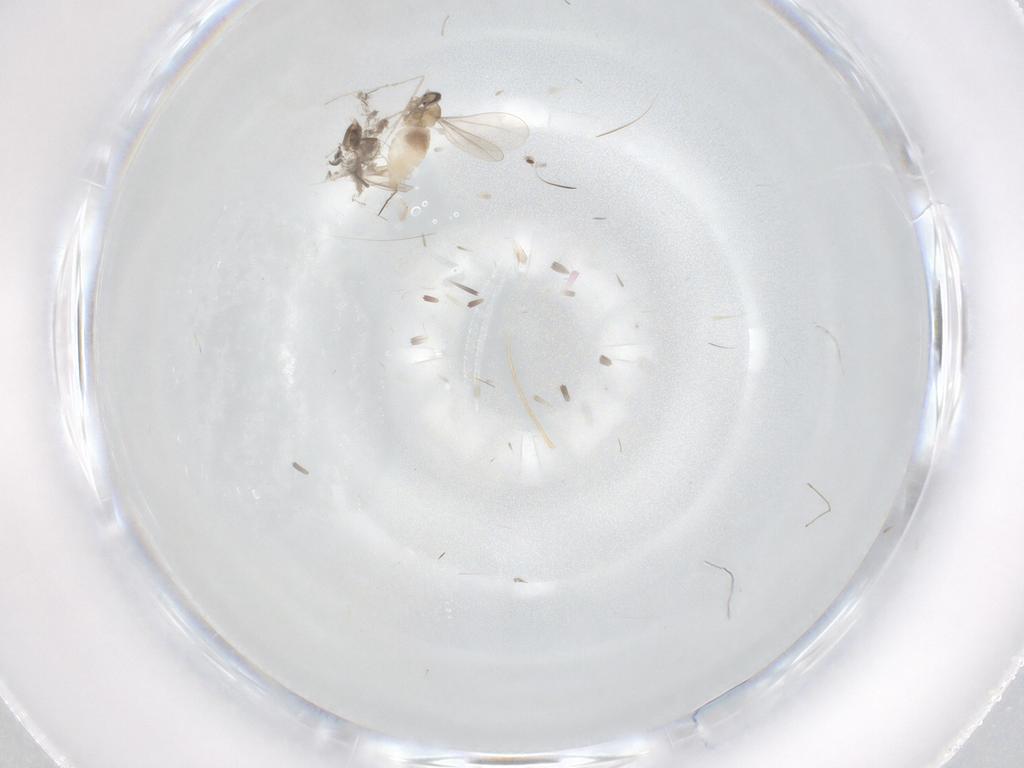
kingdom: Animalia
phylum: Arthropoda
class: Insecta
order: Diptera
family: Cecidomyiidae
